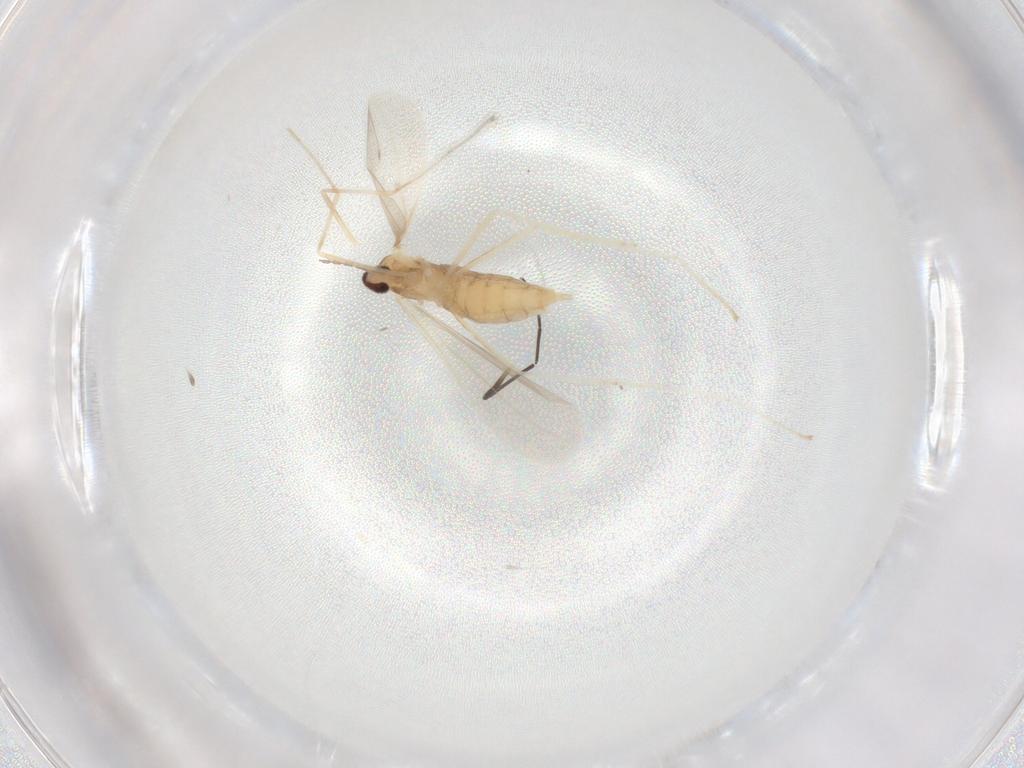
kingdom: Animalia
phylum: Arthropoda
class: Insecta
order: Diptera
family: Cecidomyiidae
